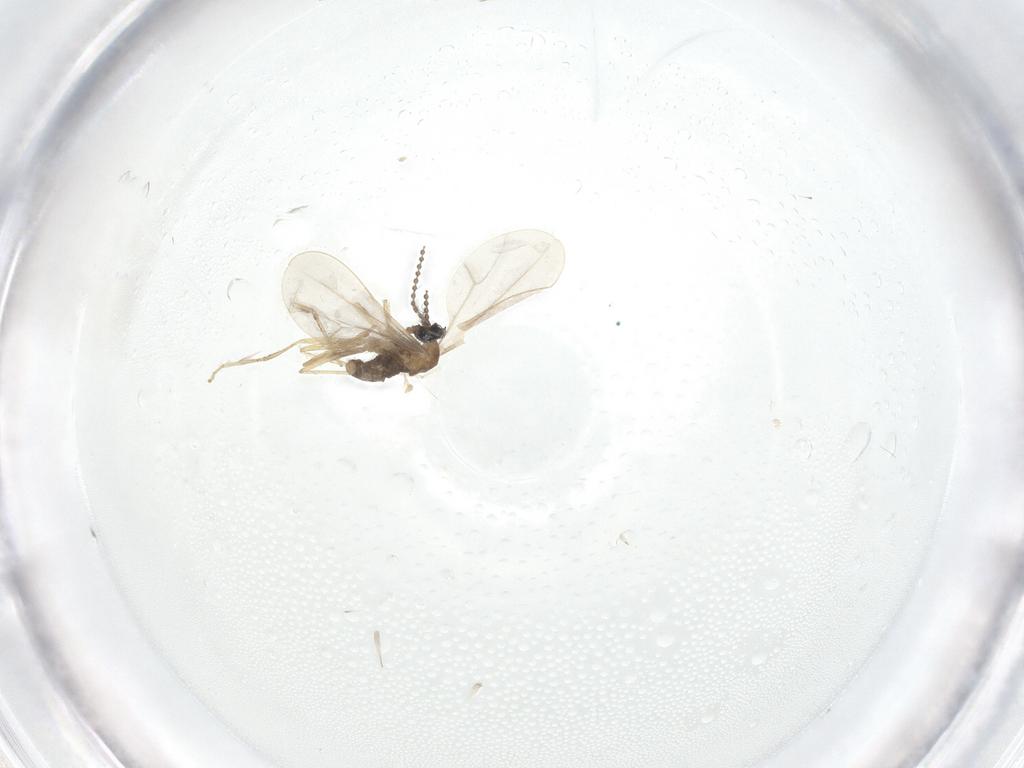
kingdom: Animalia
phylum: Arthropoda
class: Insecta
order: Diptera
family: Cecidomyiidae
